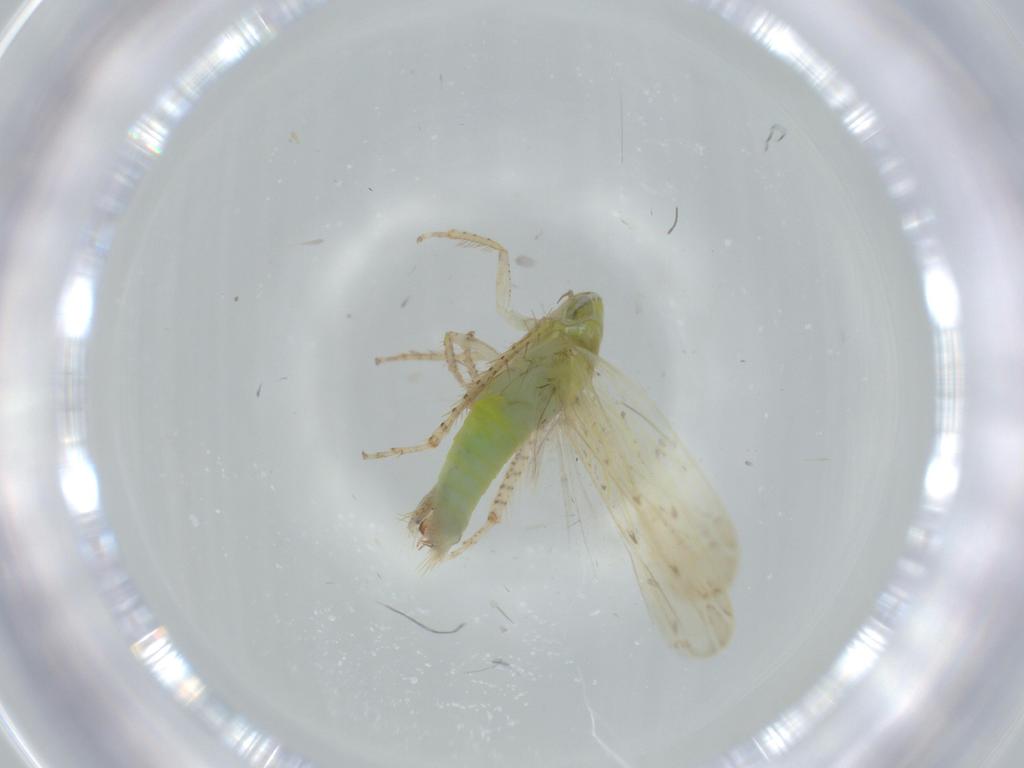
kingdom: Animalia
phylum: Arthropoda
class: Insecta
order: Hemiptera
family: Cicadellidae
